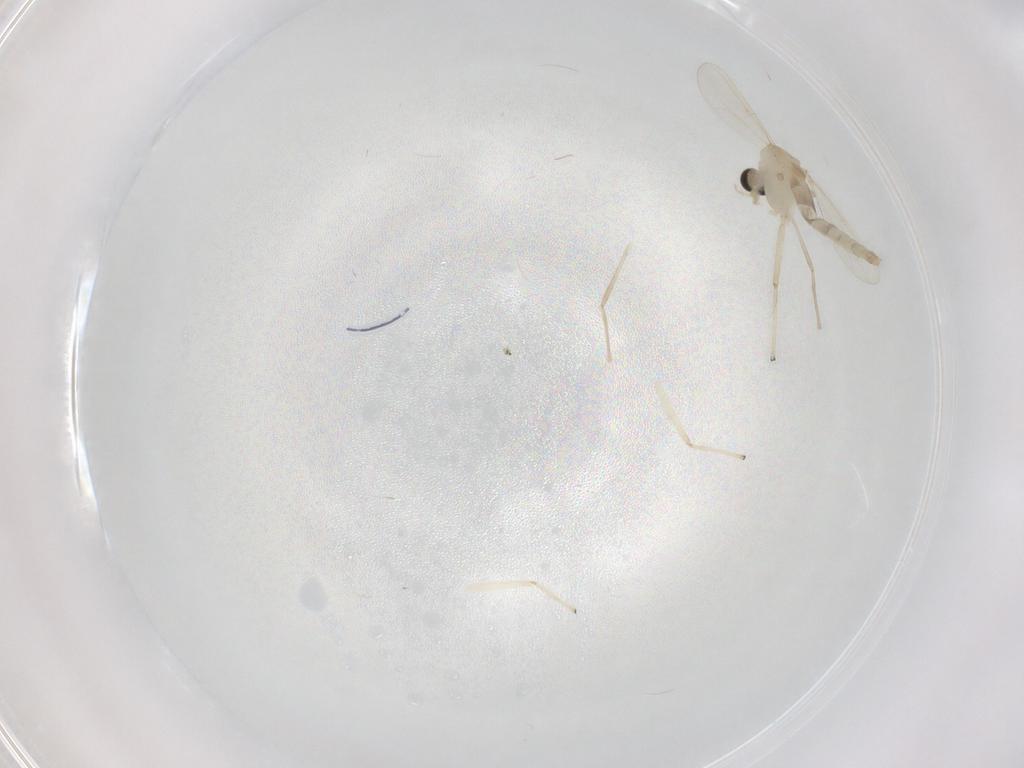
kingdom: Animalia
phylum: Arthropoda
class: Insecta
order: Diptera
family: Chironomidae
